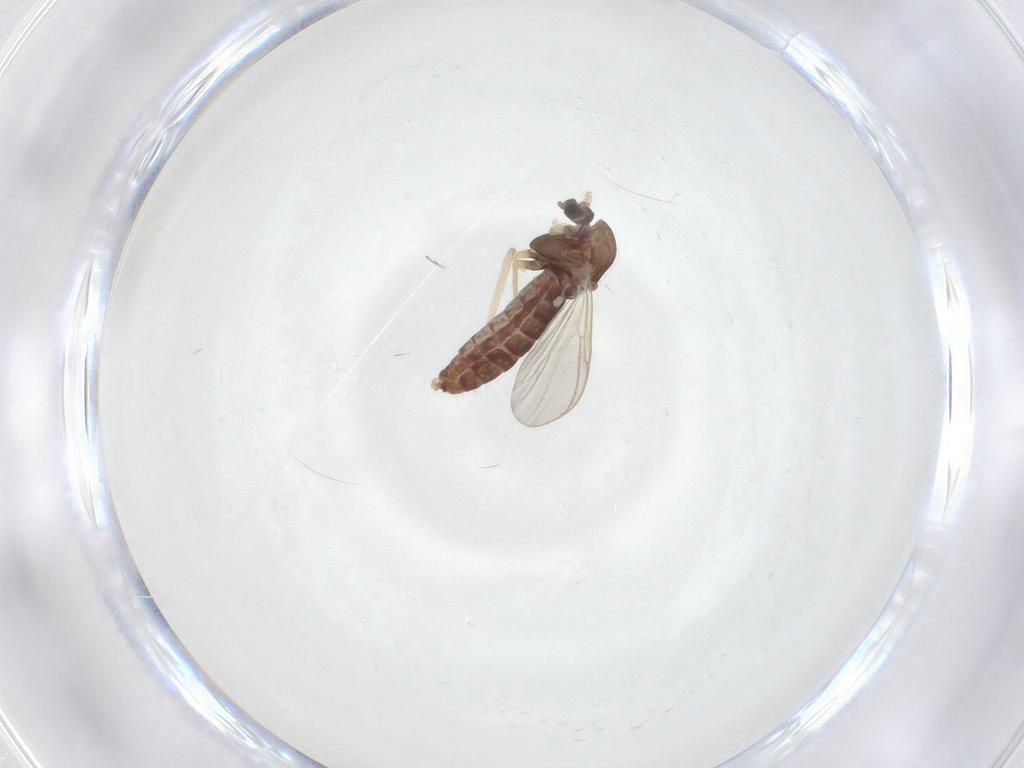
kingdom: Animalia
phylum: Arthropoda
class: Insecta
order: Diptera
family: Chironomidae
